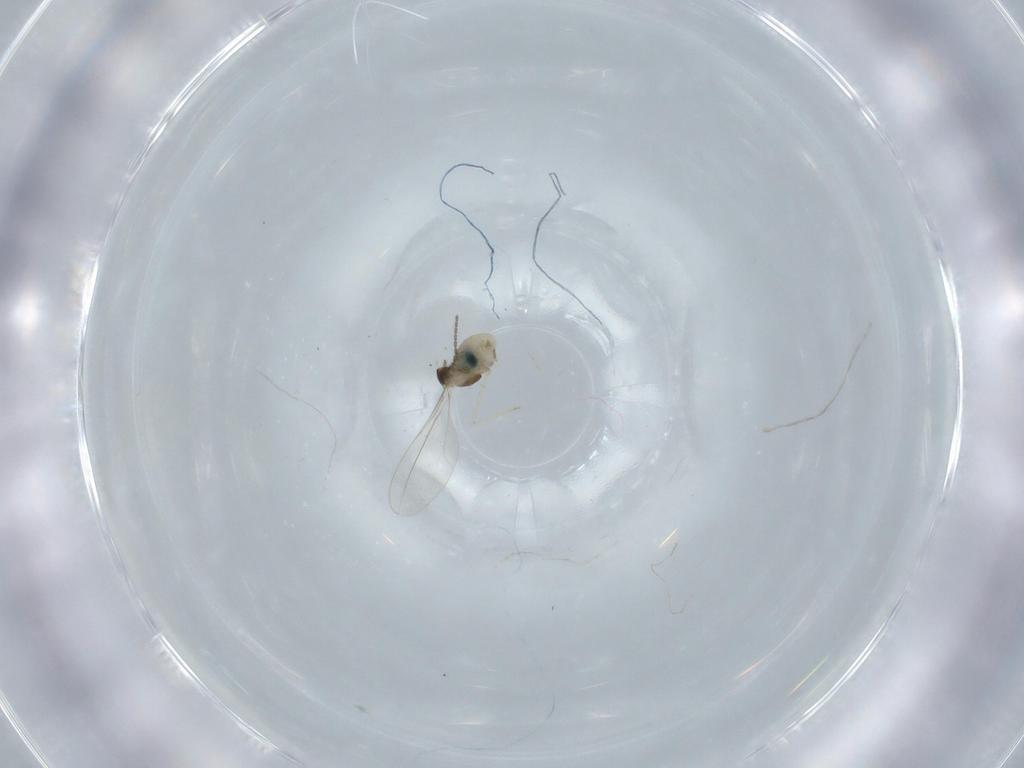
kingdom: Animalia
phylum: Arthropoda
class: Insecta
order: Diptera
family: Cecidomyiidae
